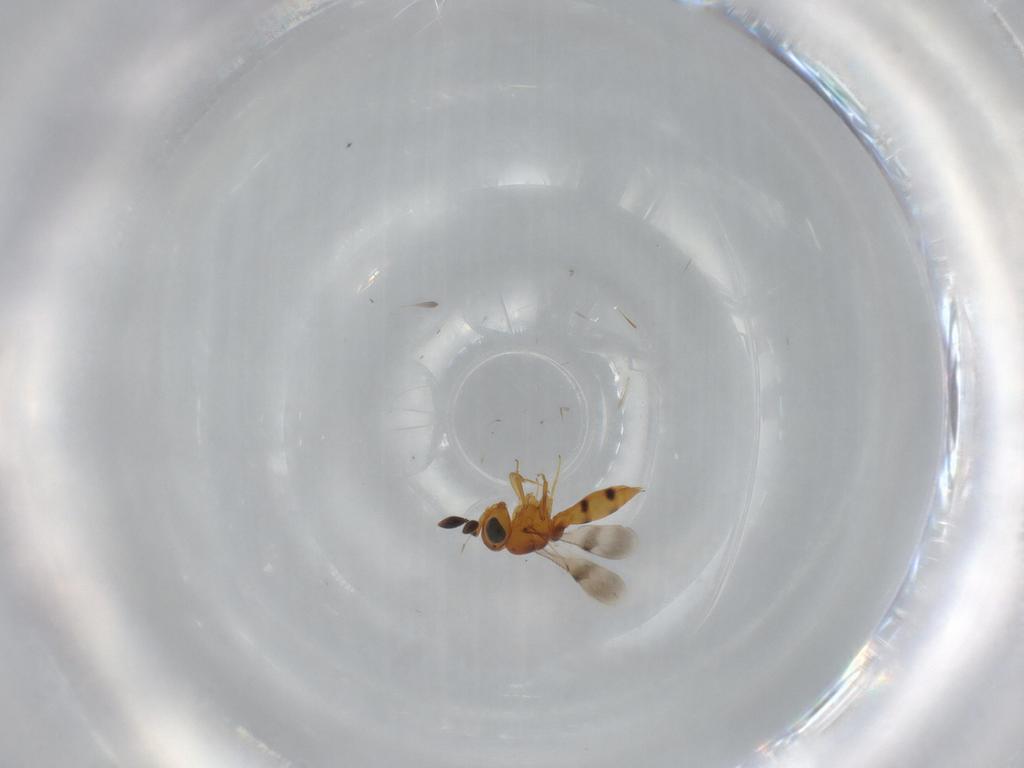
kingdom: Animalia
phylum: Arthropoda
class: Insecta
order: Hymenoptera
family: Scelionidae
